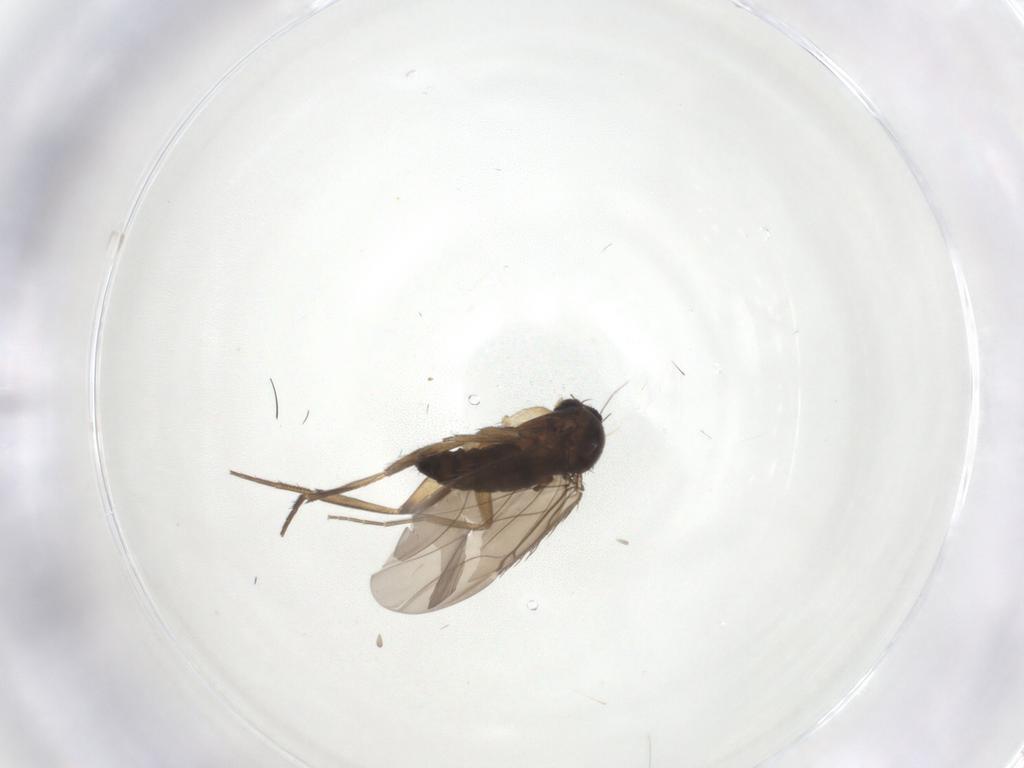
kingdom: Animalia
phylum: Arthropoda
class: Insecta
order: Diptera
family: Phoridae
